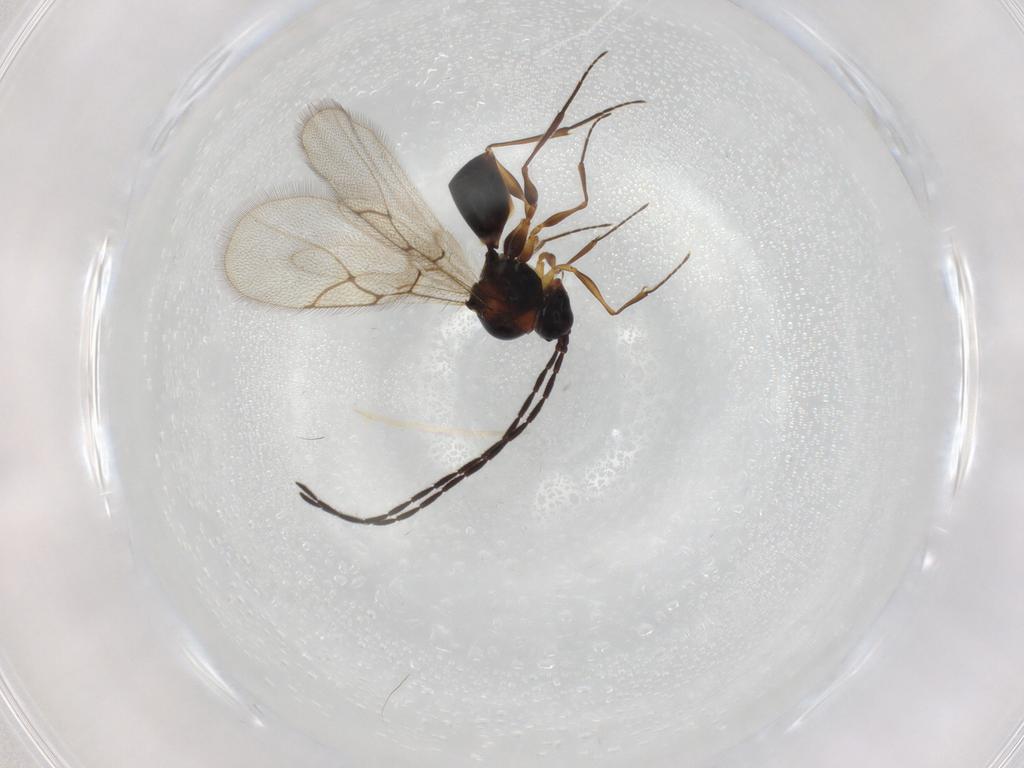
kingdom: Animalia
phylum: Arthropoda
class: Insecta
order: Hymenoptera
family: Figitidae
